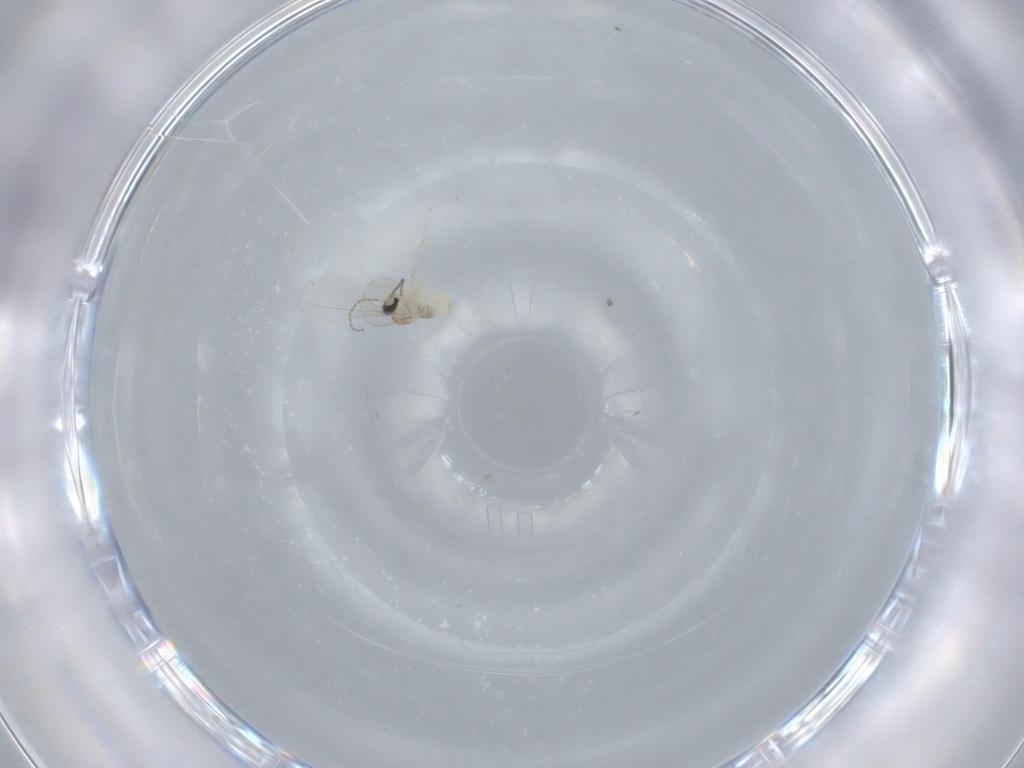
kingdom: Animalia
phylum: Arthropoda
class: Insecta
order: Diptera
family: Cecidomyiidae
